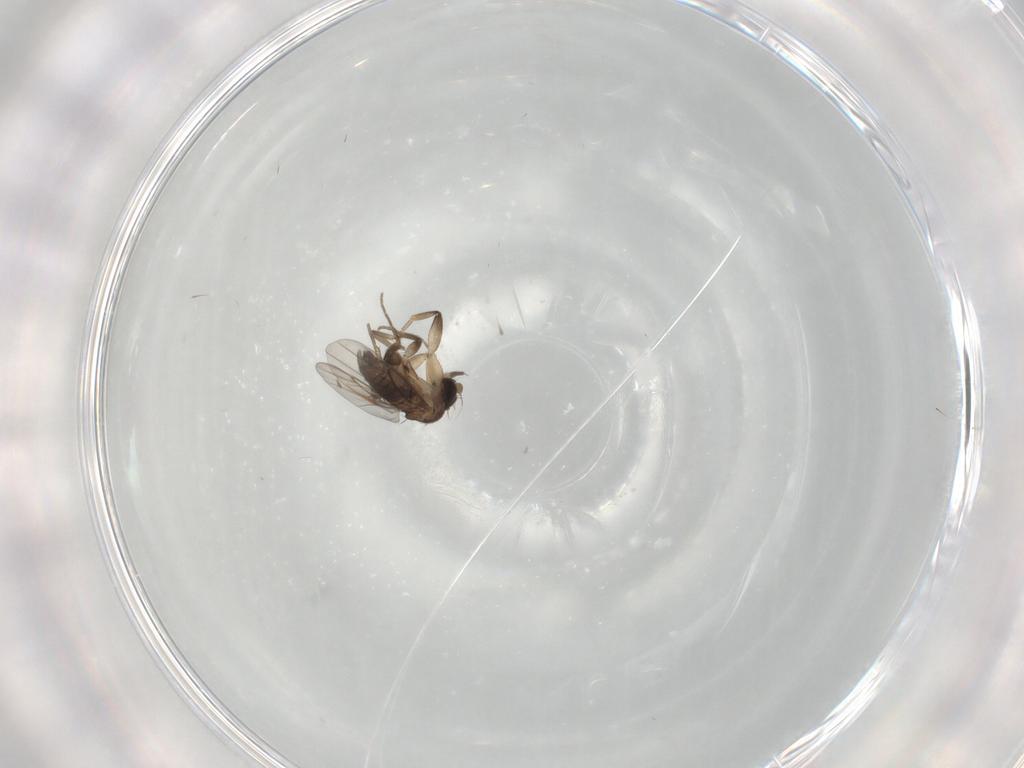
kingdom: Animalia
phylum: Arthropoda
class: Insecta
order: Diptera
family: Phoridae
